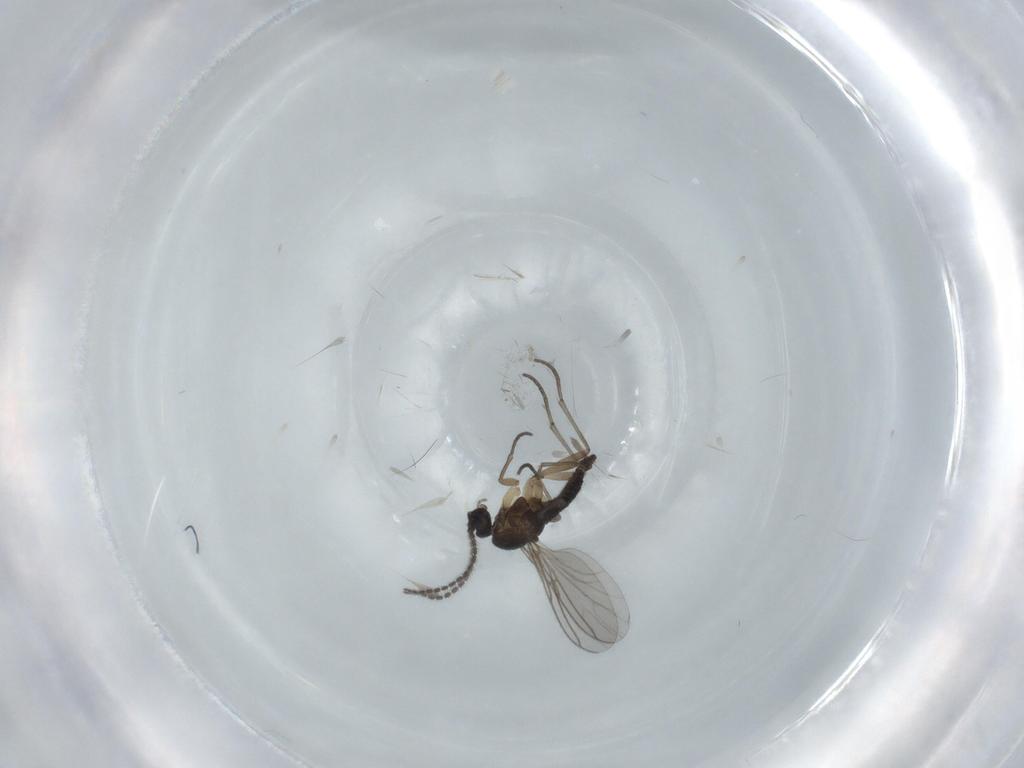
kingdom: Animalia
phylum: Arthropoda
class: Insecta
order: Diptera
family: Sciaridae
